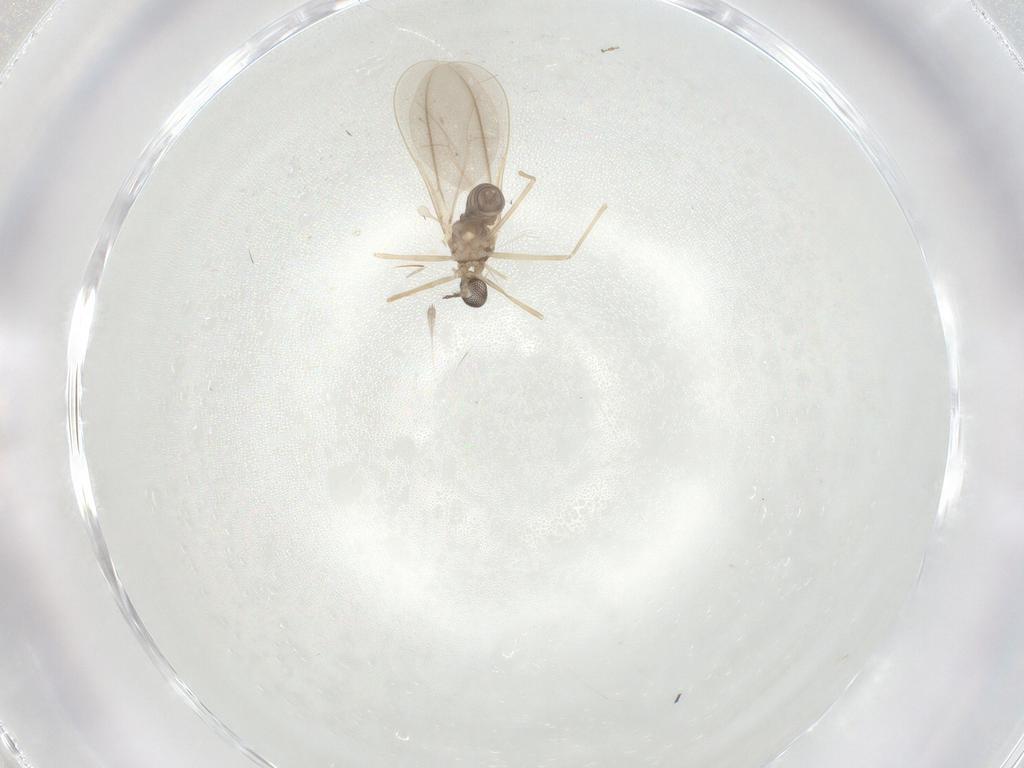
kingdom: Animalia
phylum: Arthropoda
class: Insecta
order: Diptera
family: Cecidomyiidae
